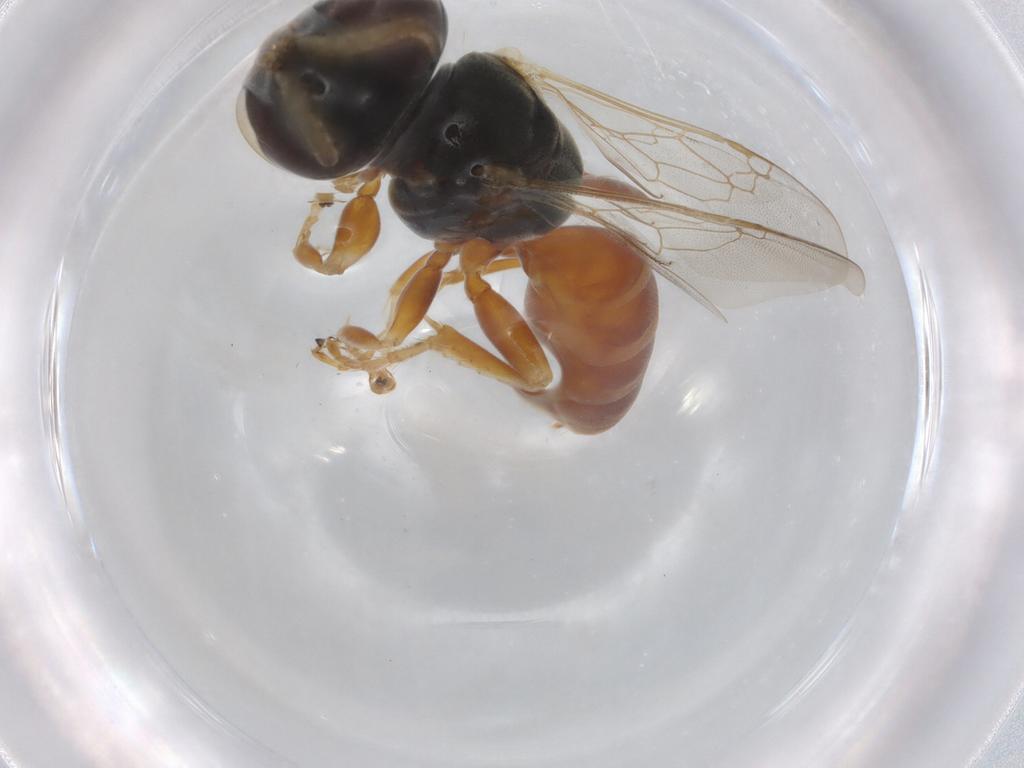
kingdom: Animalia
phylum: Arthropoda
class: Insecta
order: Hymenoptera
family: Crabronidae
